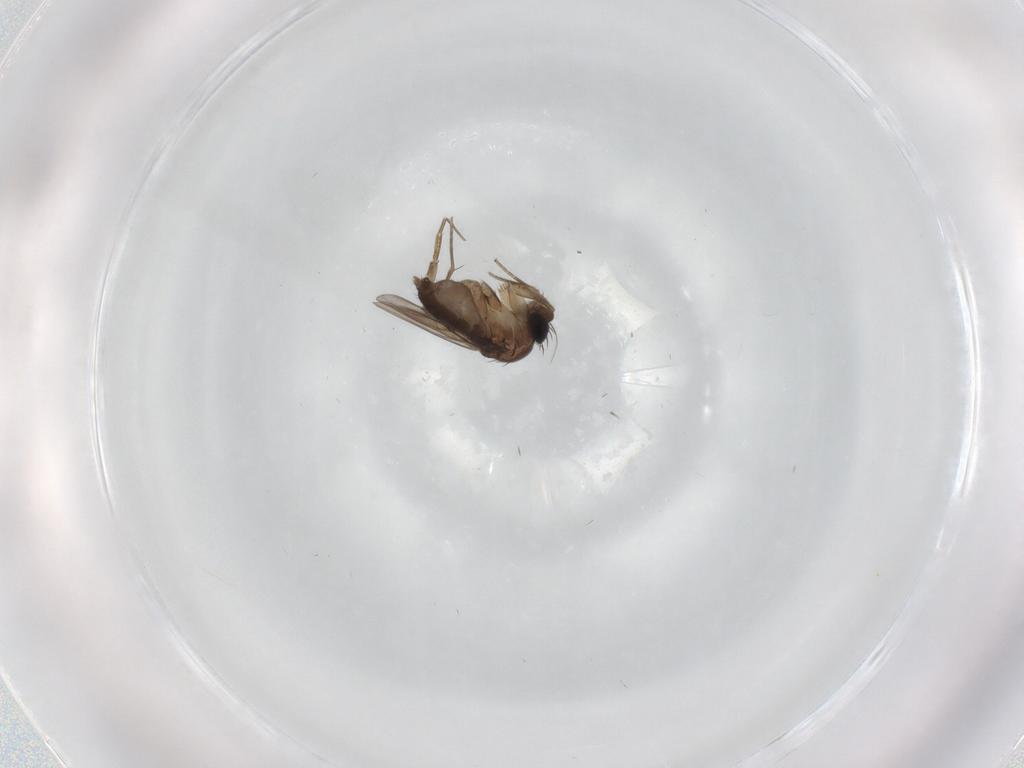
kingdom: Animalia
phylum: Arthropoda
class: Insecta
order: Diptera
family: Phoridae
